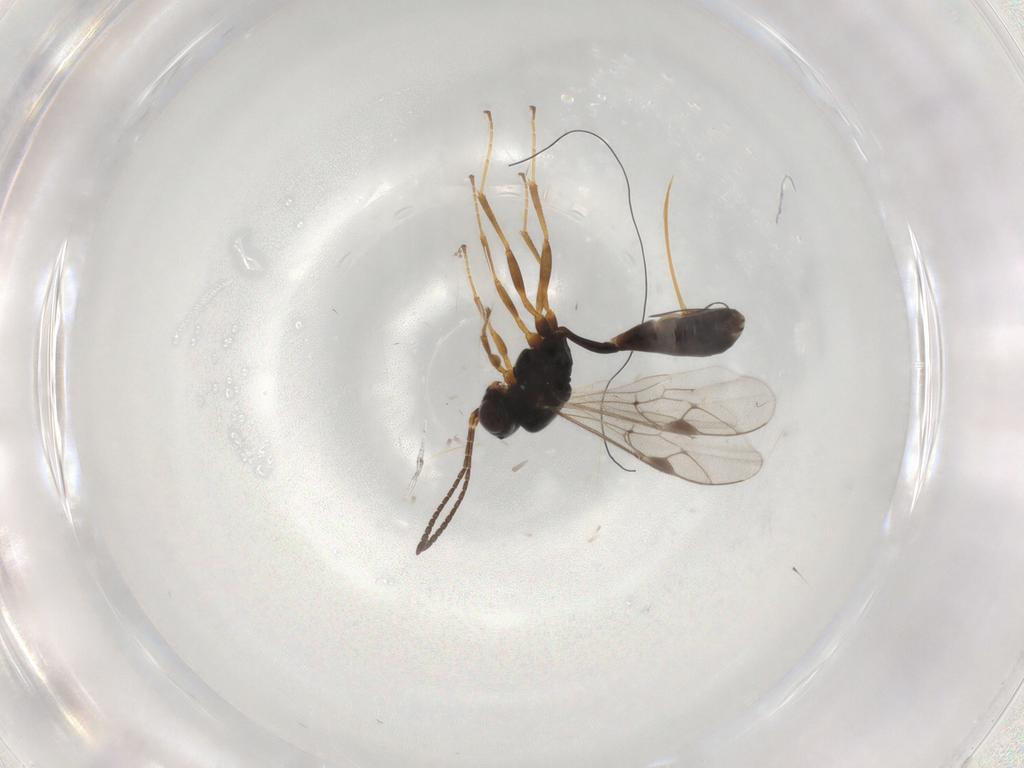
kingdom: Animalia
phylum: Arthropoda
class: Insecta
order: Hymenoptera
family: Ichneumonidae
